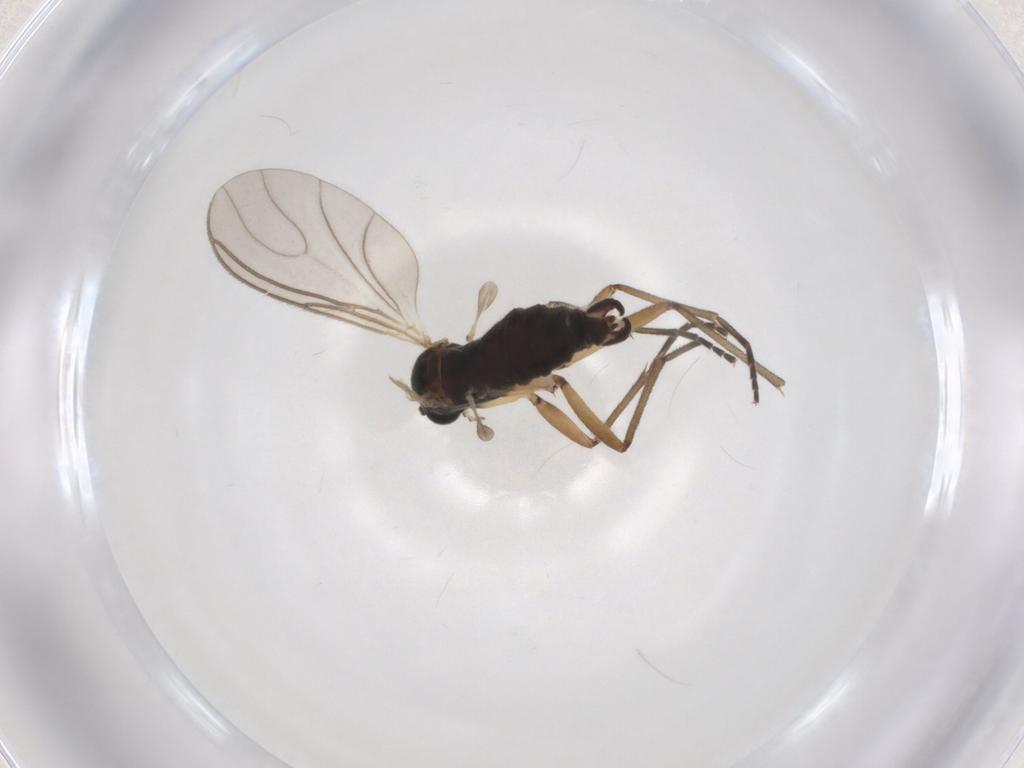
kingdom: Animalia
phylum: Arthropoda
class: Insecta
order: Diptera
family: Sciaridae
